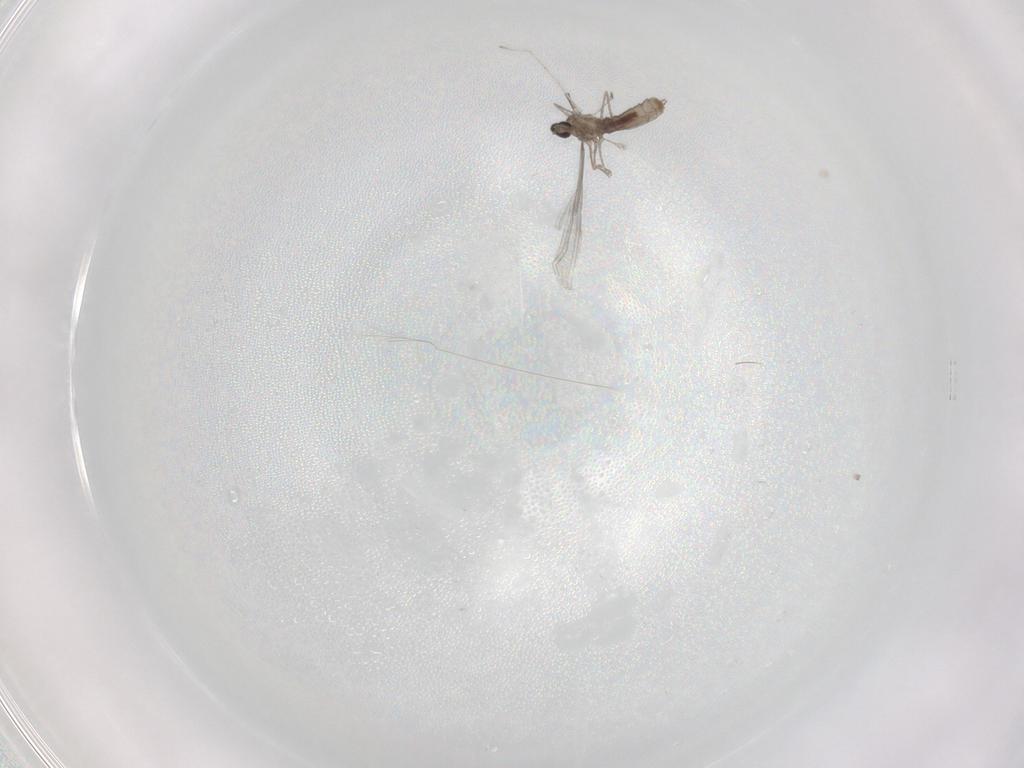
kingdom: Animalia
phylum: Arthropoda
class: Insecta
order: Diptera
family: Cecidomyiidae
